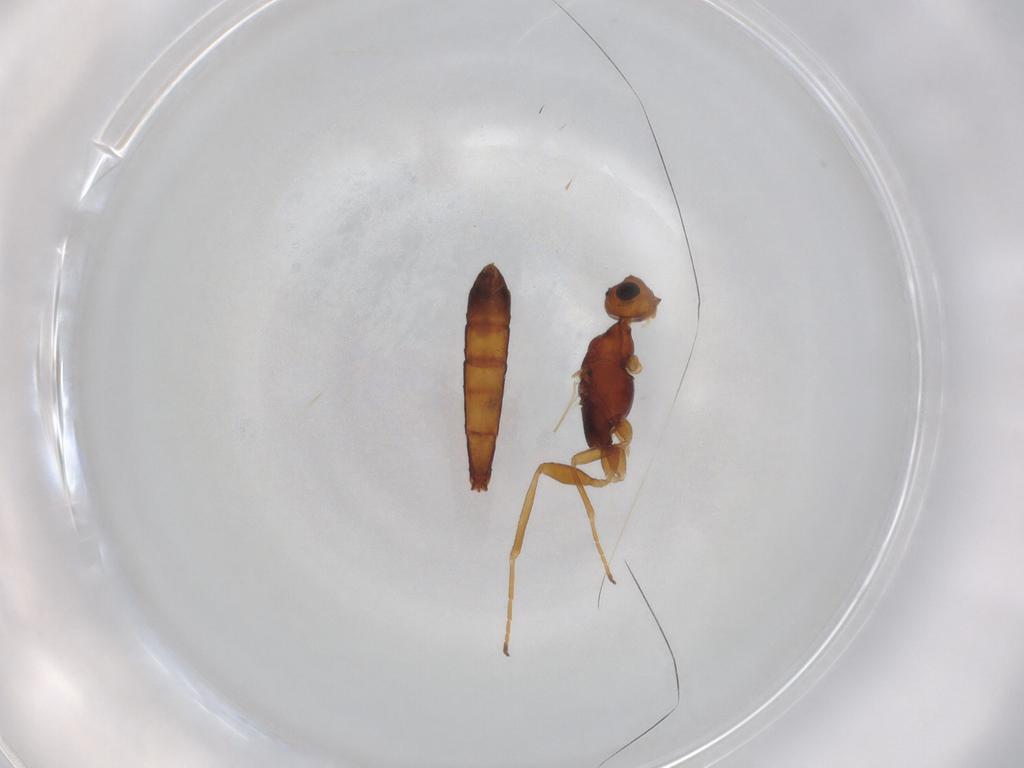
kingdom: Animalia
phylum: Arthropoda
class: Insecta
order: Hymenoptera
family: Braconidae
